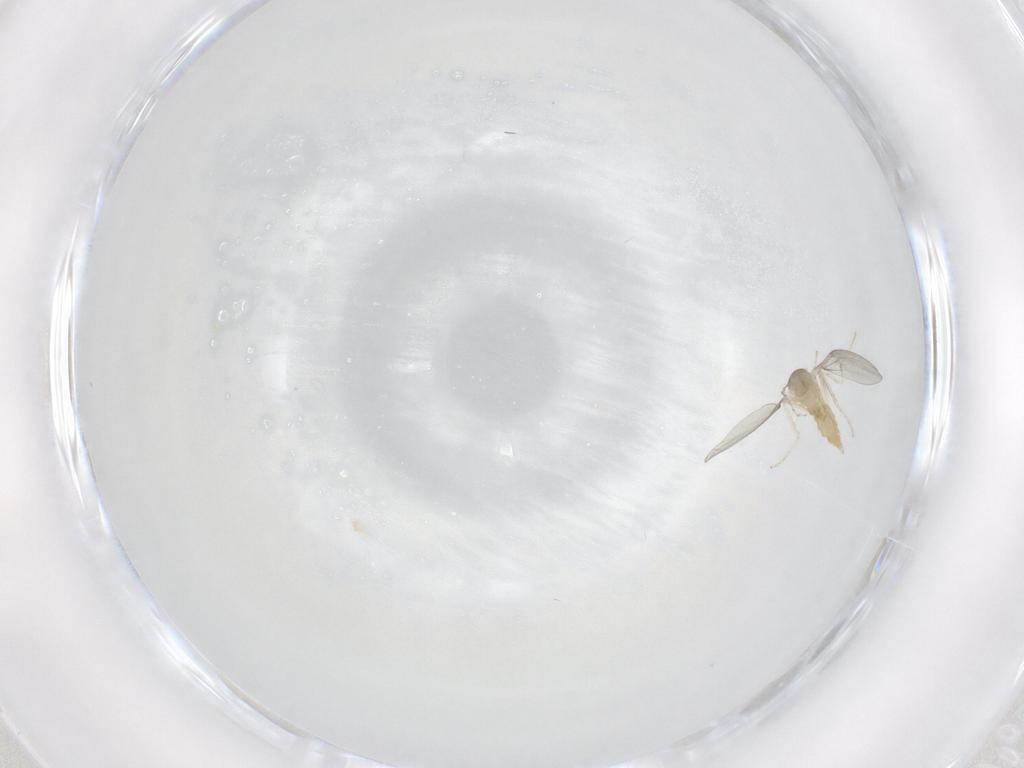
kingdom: Animalia
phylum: Arthropoda
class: Insecta
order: Diptera
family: Cecidomyiidae
